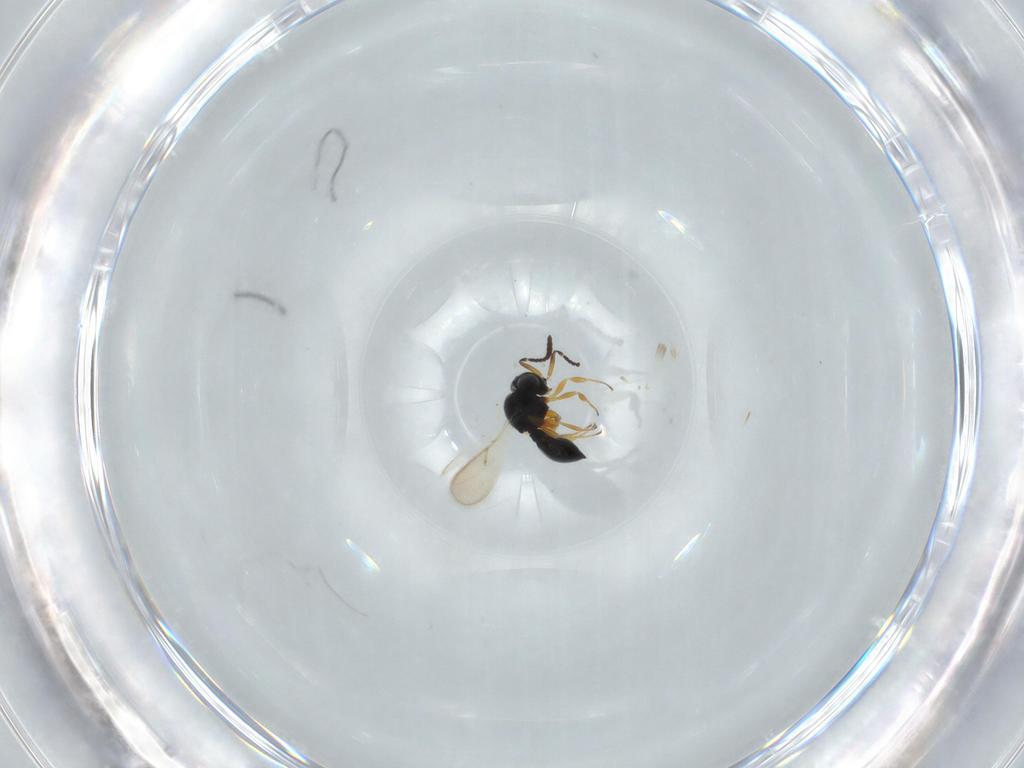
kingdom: Animalia
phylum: Arthropoda
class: Insecta
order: Hymenoptera
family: Scelionidae
